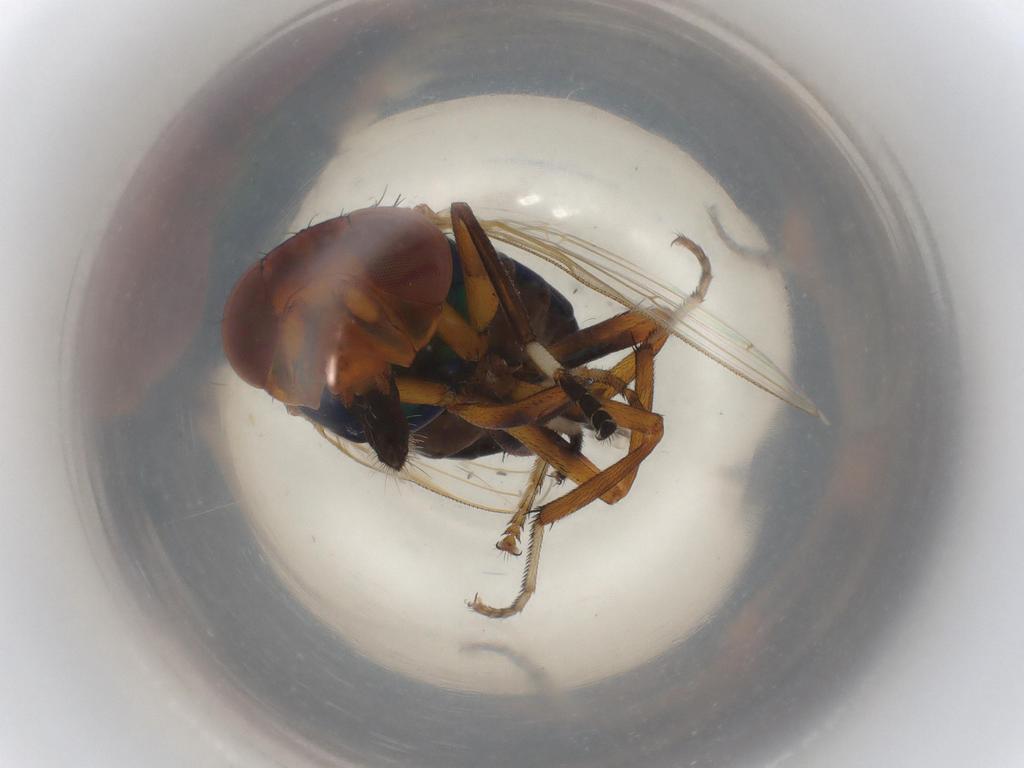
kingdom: Animalia
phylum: Arthropoda
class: Insecta
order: Diptera
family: Ulidiidae
